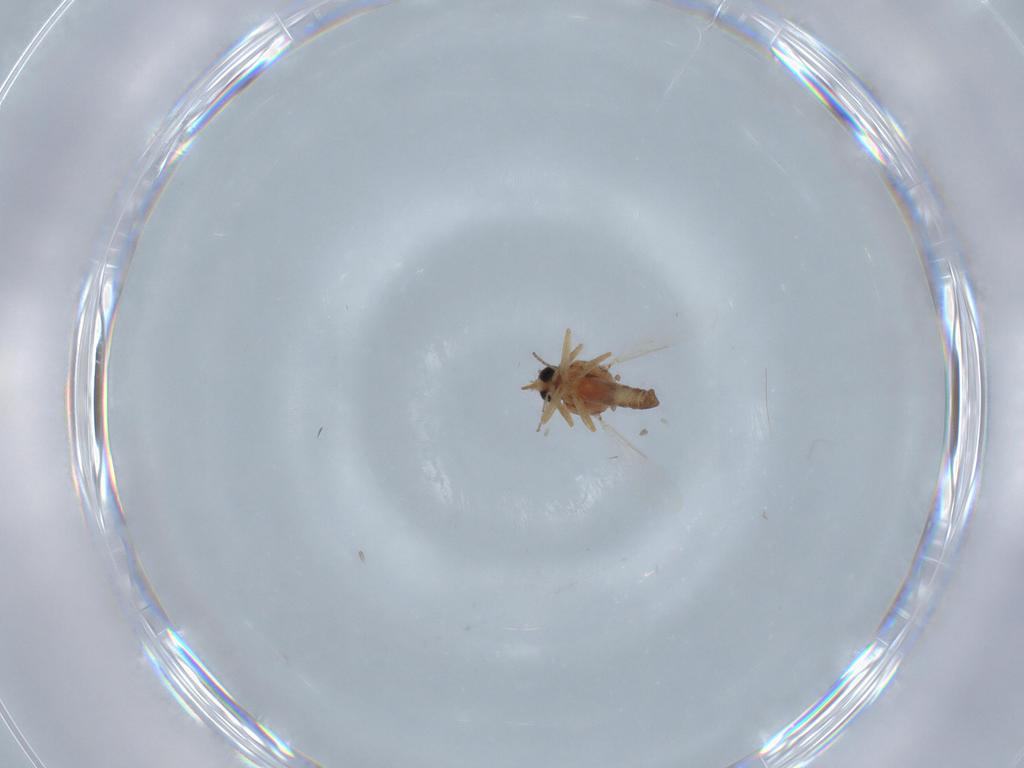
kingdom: Animalia
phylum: Arthropoda
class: Insecta
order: Diptera
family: Ceratopogonidae
